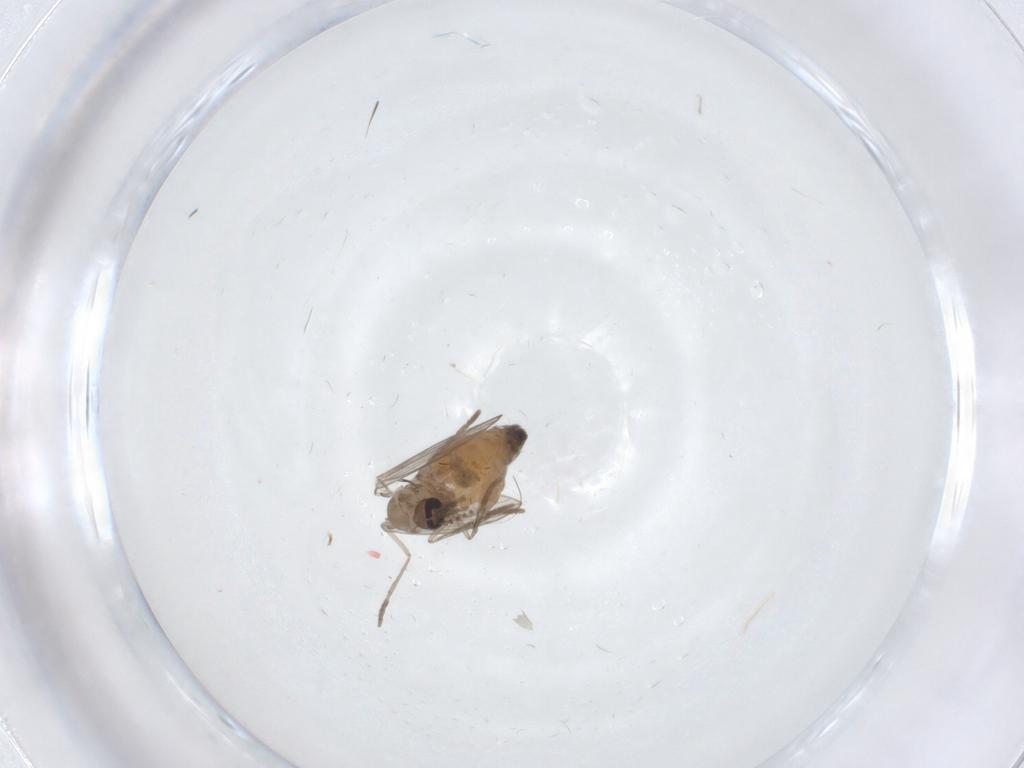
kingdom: Animalia
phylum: Arthropoda
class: Insecta
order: Diptera
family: Psychodidae
